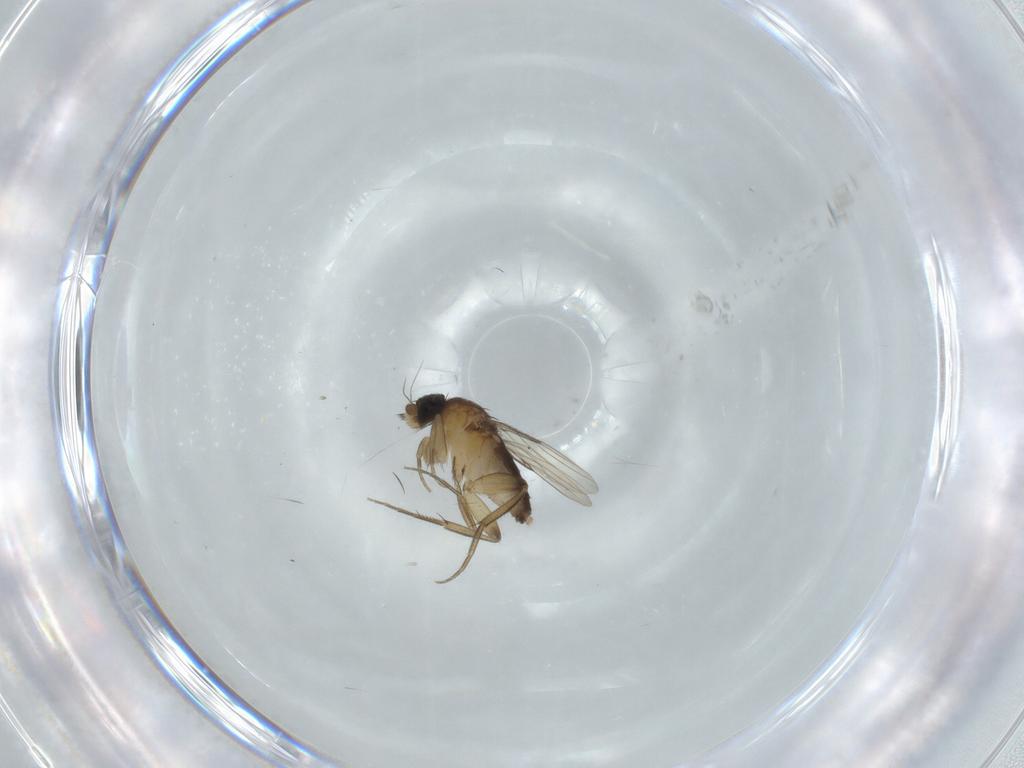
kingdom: Animalia
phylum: Arthropoda
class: Insecta
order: Diptera
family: Phoridae
